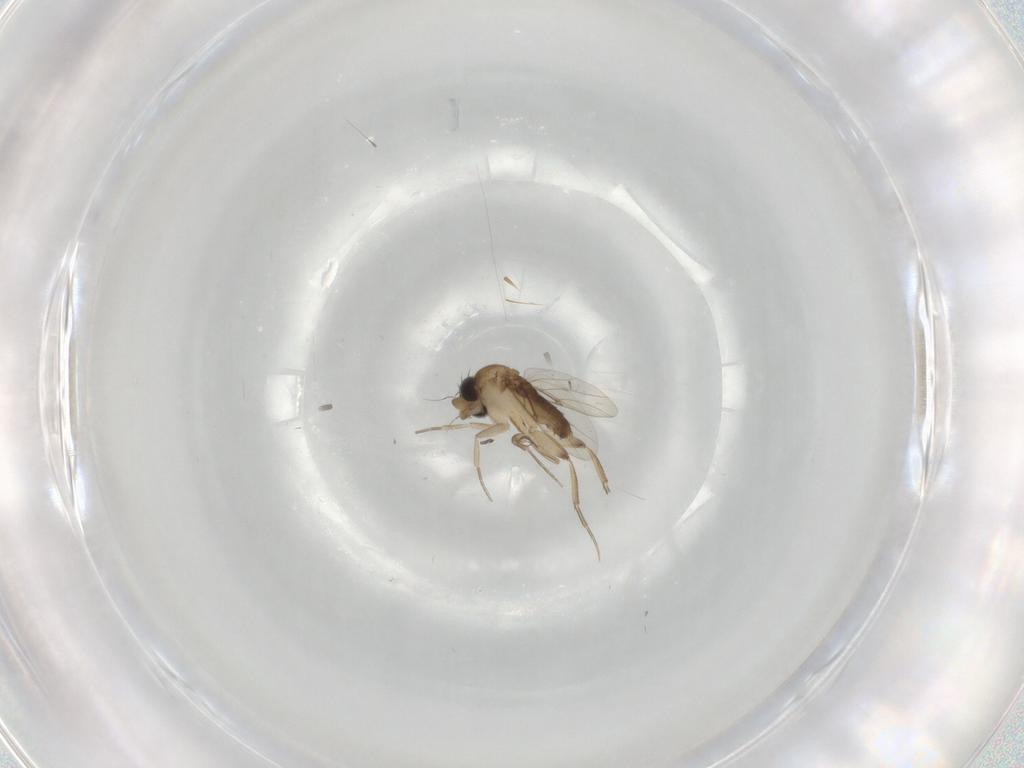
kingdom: Animalia
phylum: Arthropoda
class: Insecta
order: Diptera
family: Phoridae
